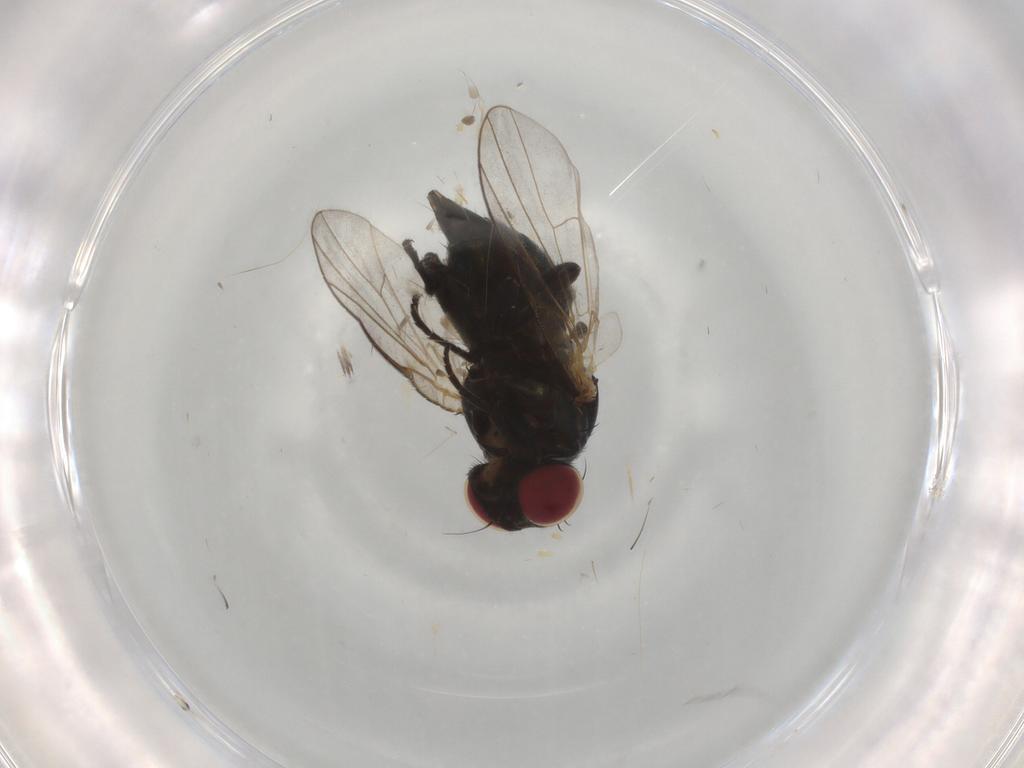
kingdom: Animalia
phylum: Arthropoda
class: Insecta
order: Diptera
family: Agromyzidae
